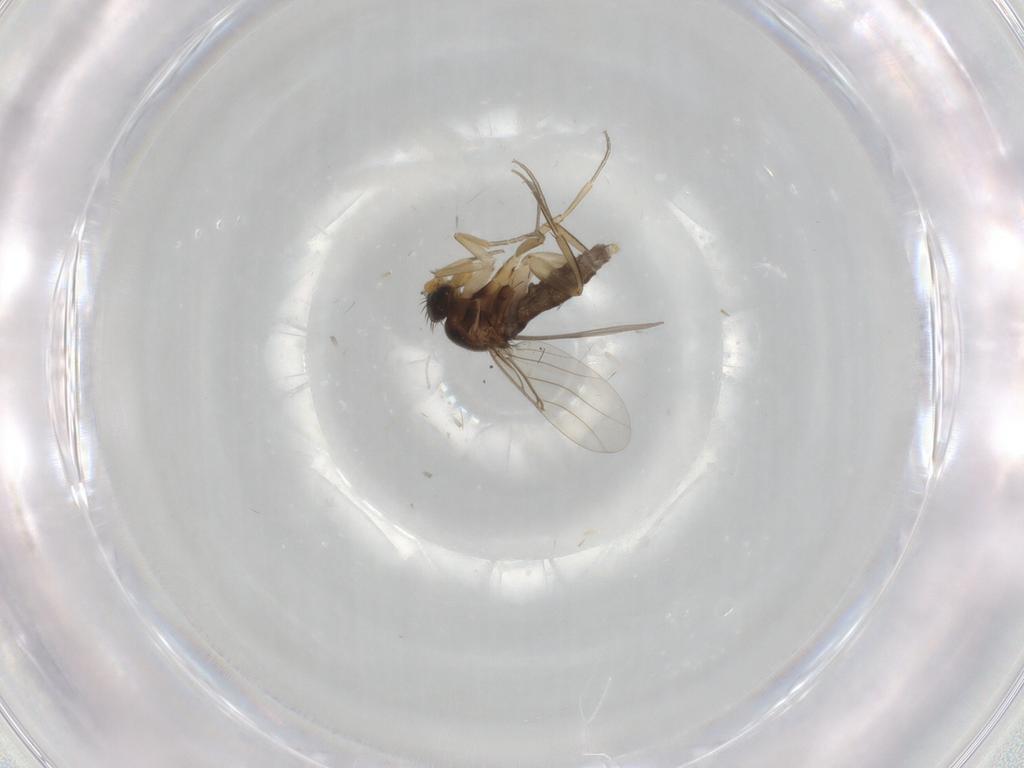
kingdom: Animalia
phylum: Arthropoda
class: Insecta
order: Diptera
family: Phoridae
